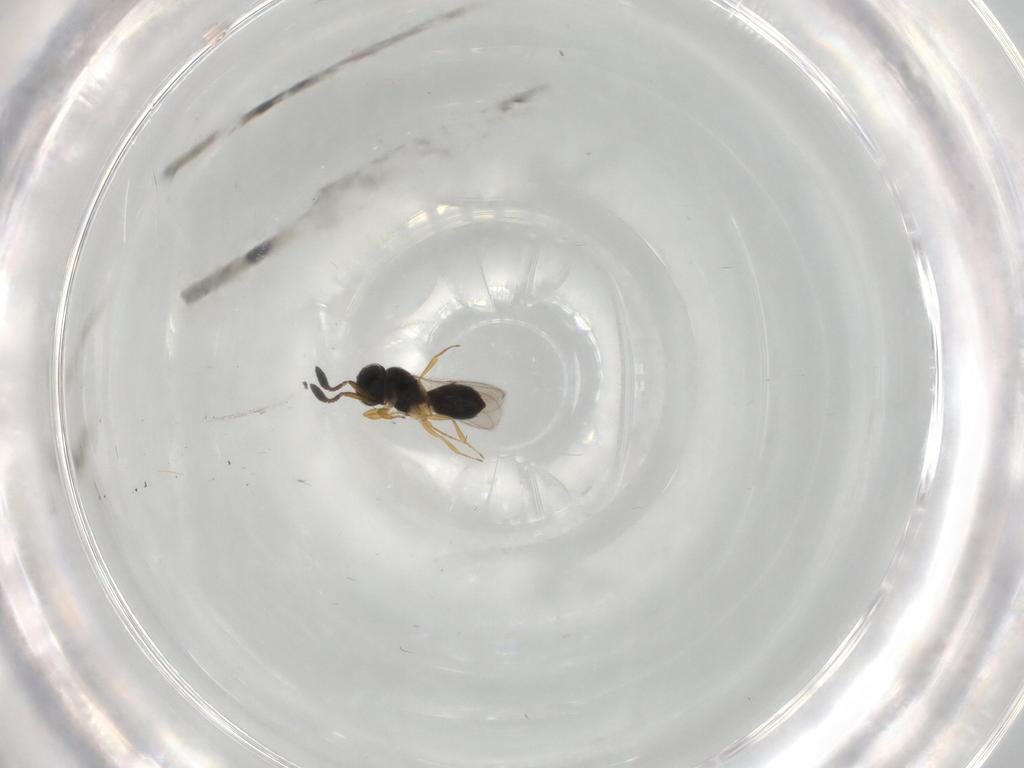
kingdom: Animalia
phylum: Arthropoda
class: Insecta
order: Hymenoptera
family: Scelionidae
